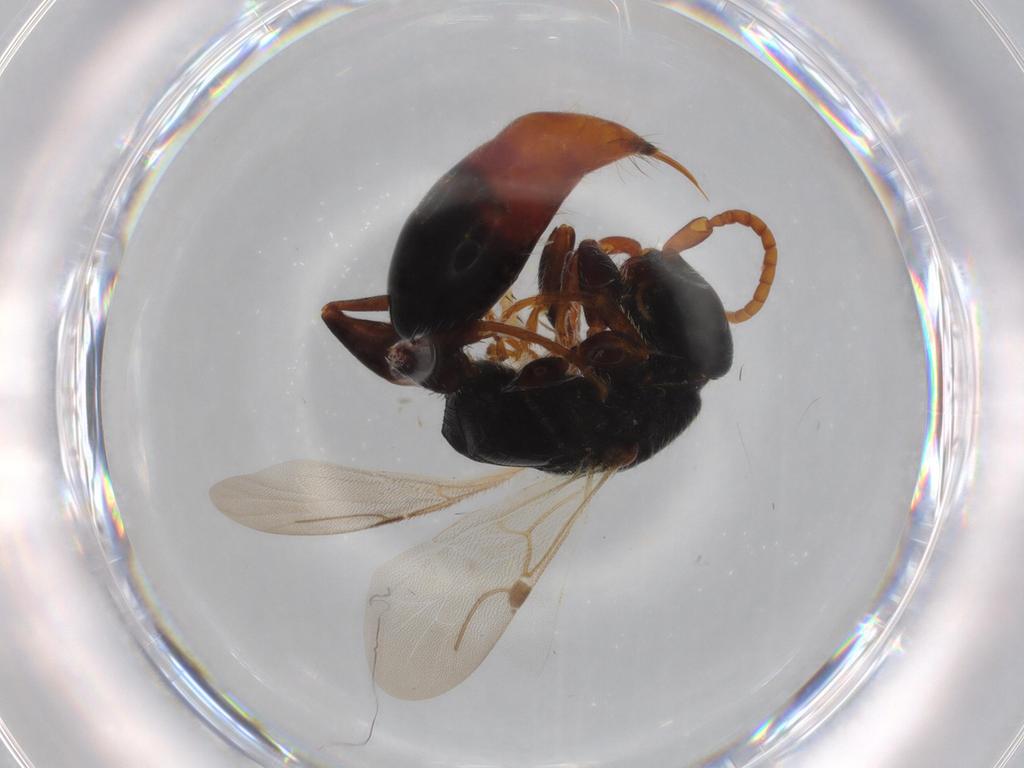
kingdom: Animalia
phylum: Arthropoda
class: Insecta
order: Hymenoptera
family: Bethylidae
